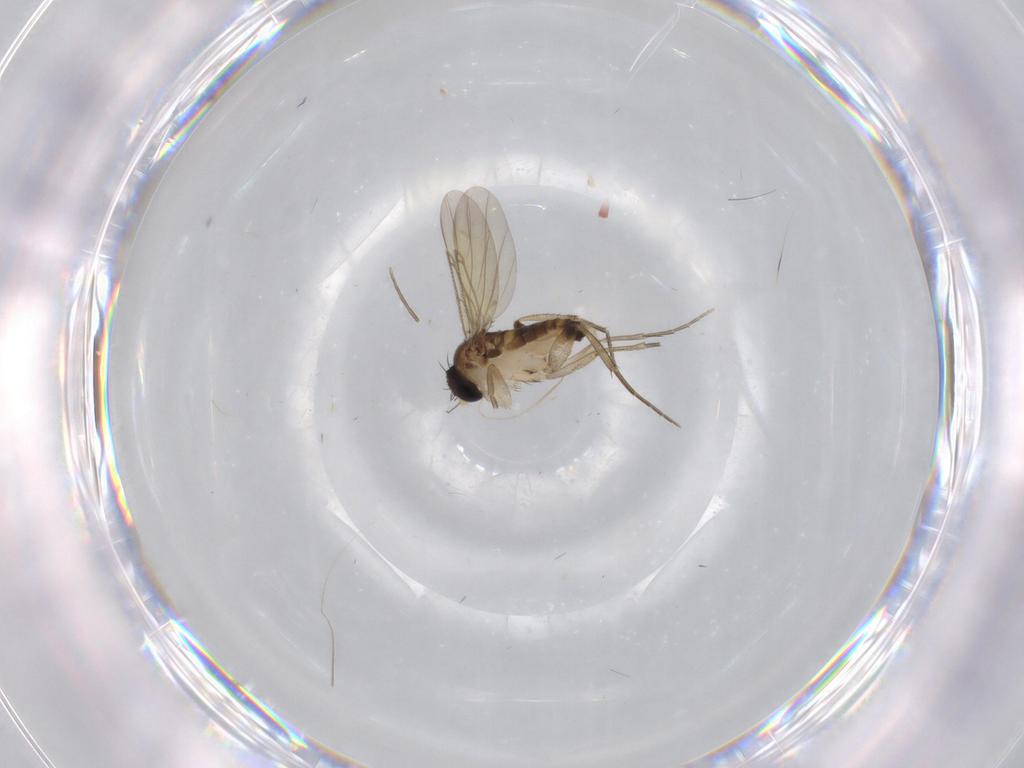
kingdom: Animalia
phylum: Arthropoda
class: Insecta
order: Diptera
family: Phoridae
